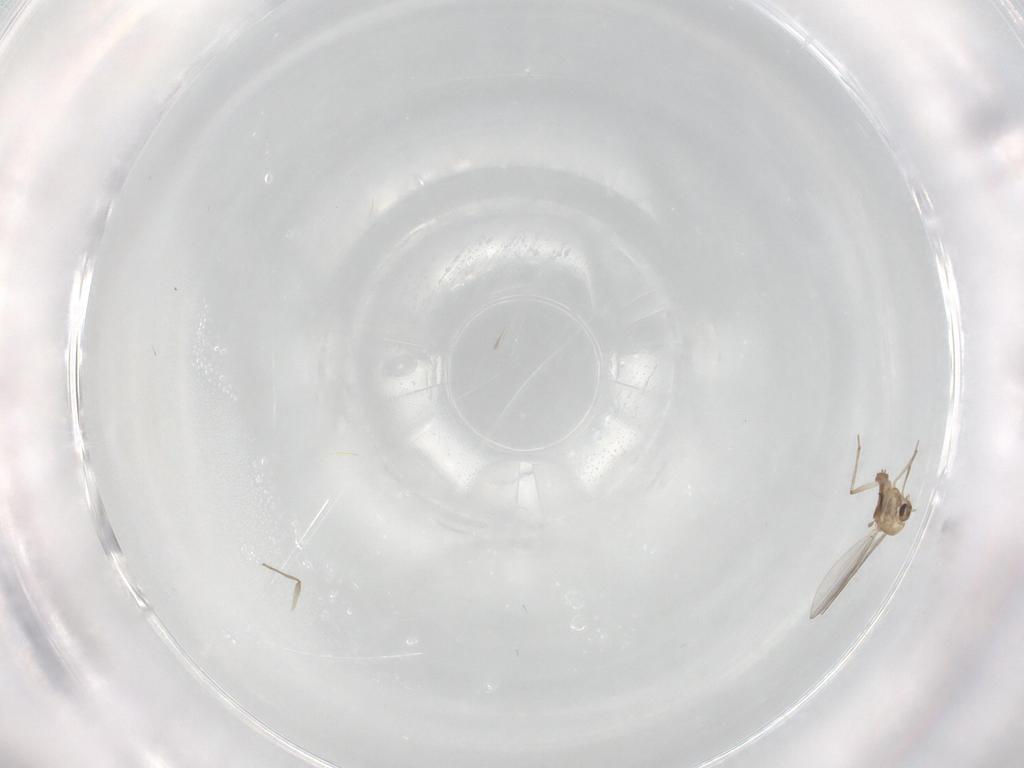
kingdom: Animalia
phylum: Arthropoda
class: Insecta
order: Diptera
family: Chironomidae
